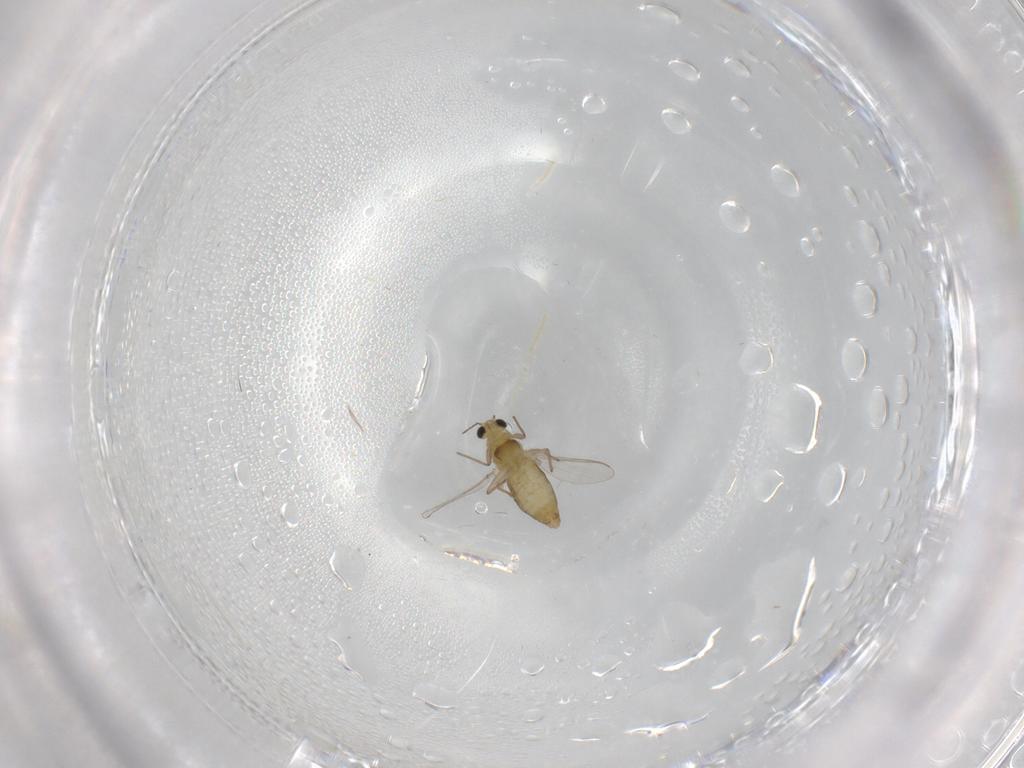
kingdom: Animalia
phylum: Arthropoda
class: Insecta
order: Diptera
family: Chironomidae
